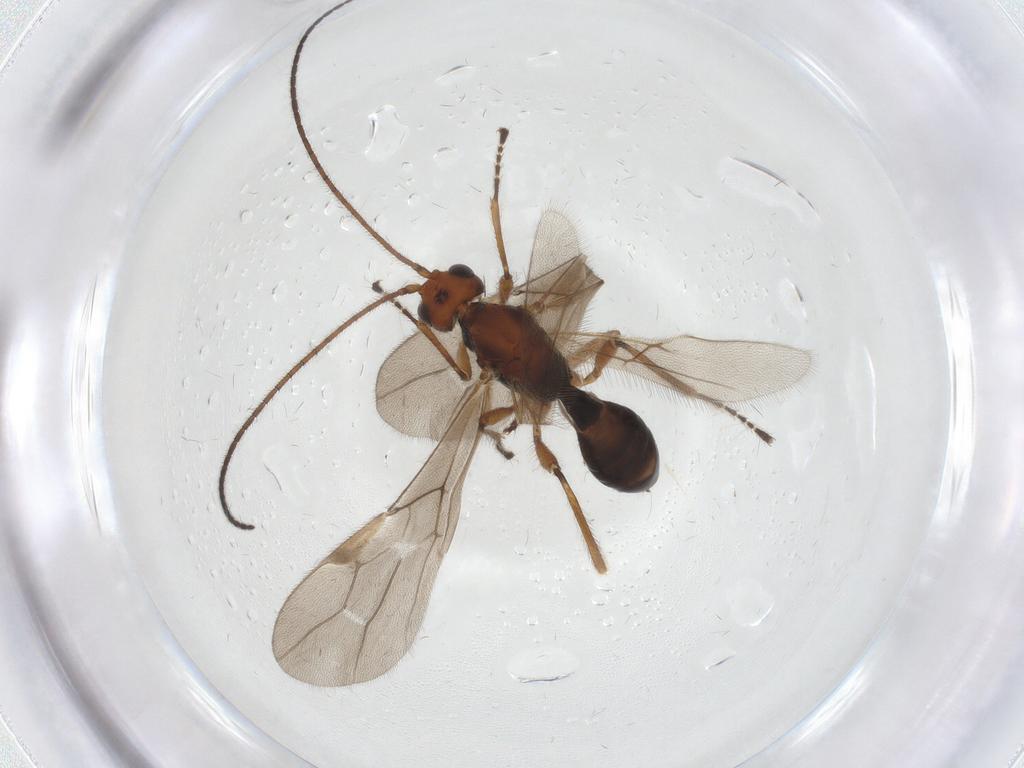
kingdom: Animalia
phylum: Arthropoda
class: Insecta
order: Hymenoptera
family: Braconidae
